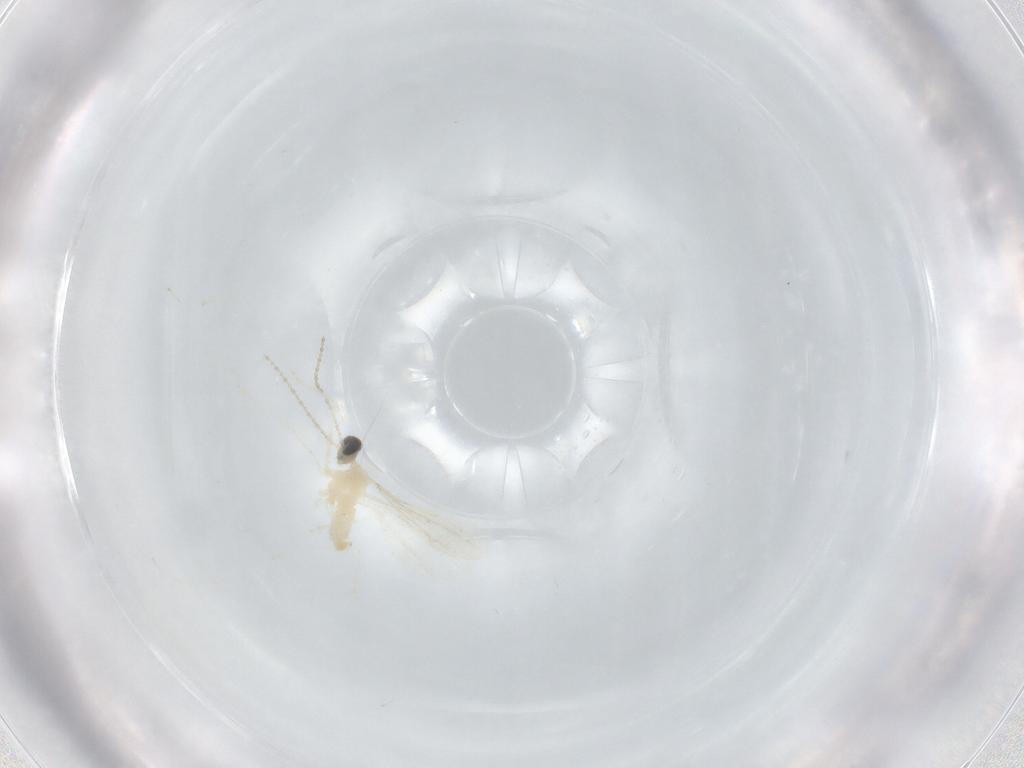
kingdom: Animalia
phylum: Arthropoda
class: Insecta
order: Diptera
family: Cecidomyiidae
